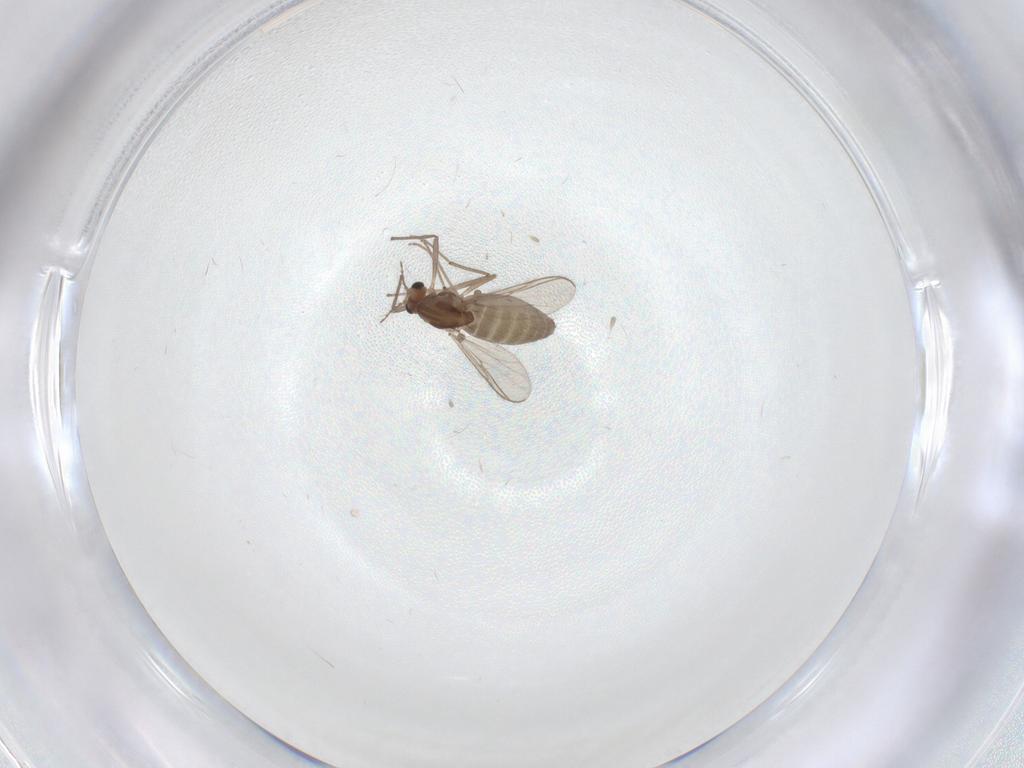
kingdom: Animalia
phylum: Arthropoda
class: Insecta
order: Diptera
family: Chironomidae
